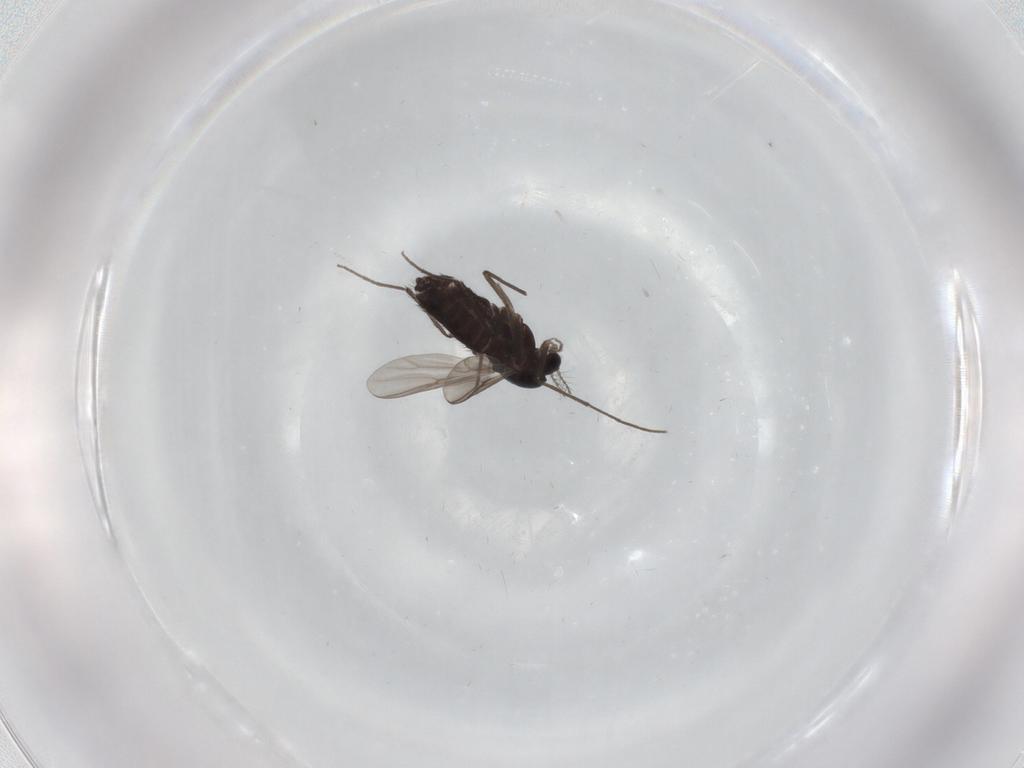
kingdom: Animalia
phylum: Arthropoda
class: Insecta
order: Diptera
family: Chironomidae
